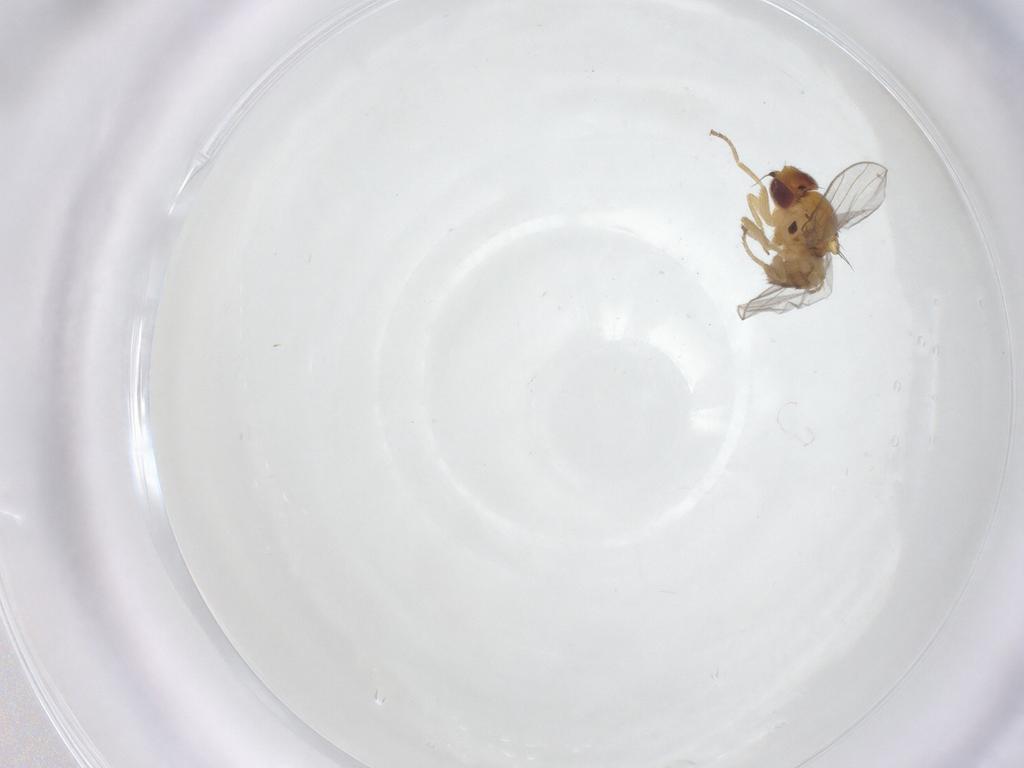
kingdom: Animalia
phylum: Arthropoda
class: Insecta
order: Diptera
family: Chloropidae
